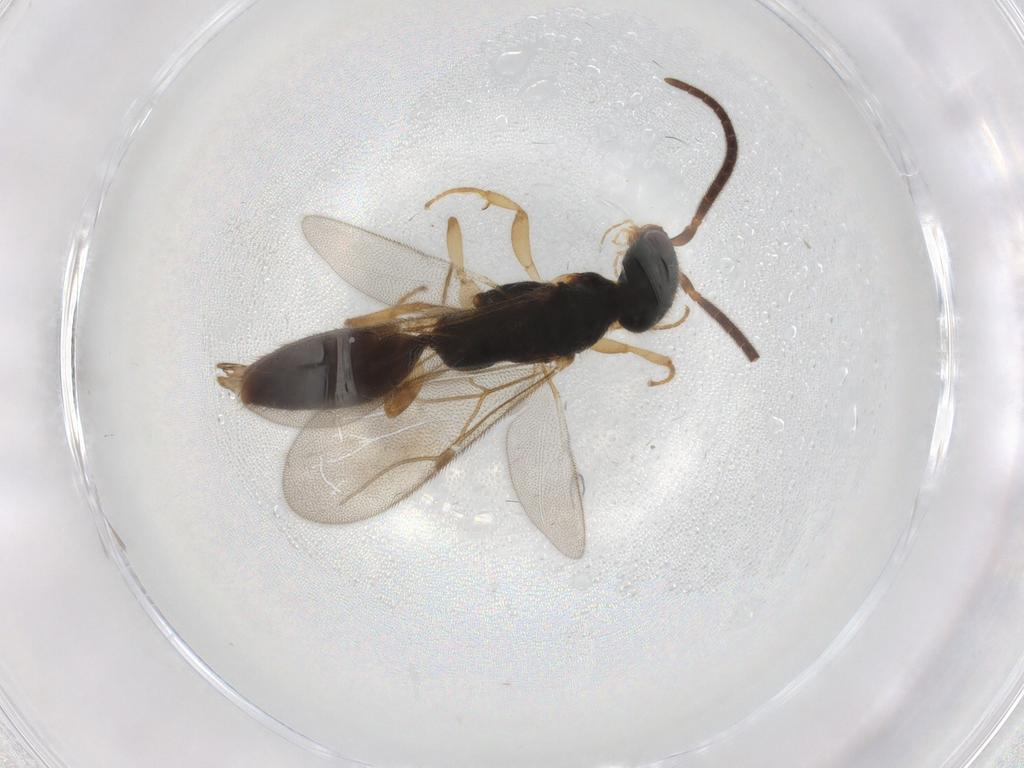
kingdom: Animalia
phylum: Arthropoda
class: Insecta
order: Hymenoptera
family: Bethylidae
